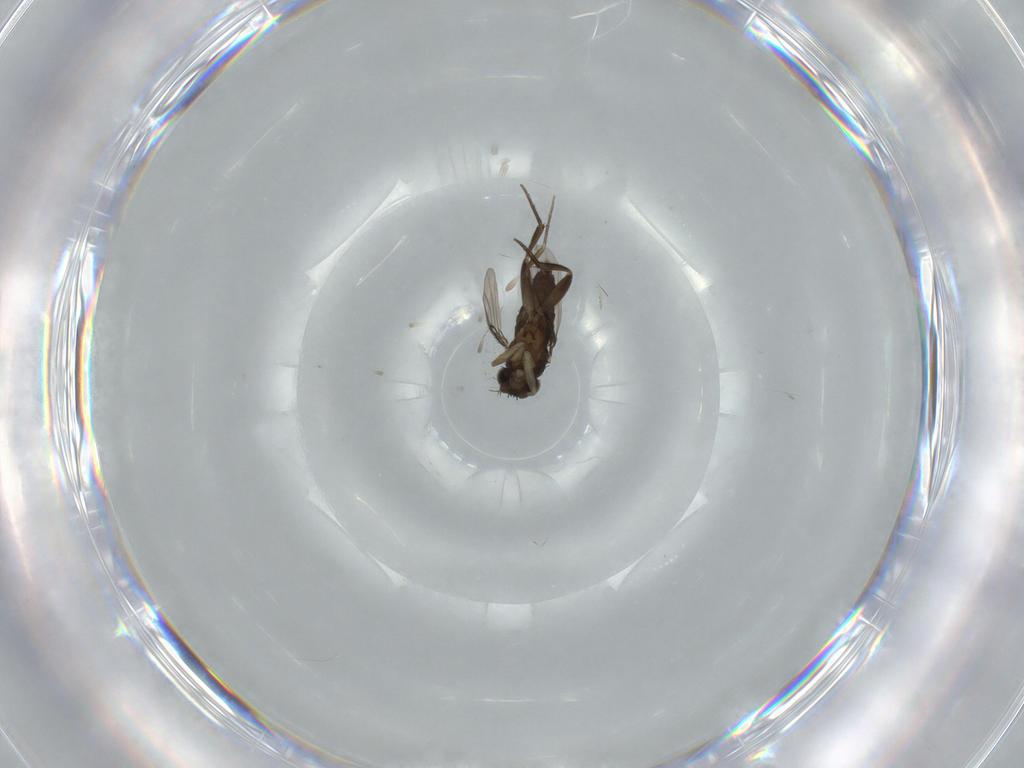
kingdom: Animalia
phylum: Arthropoda
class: Insecta
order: Diptera
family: Phoridae
